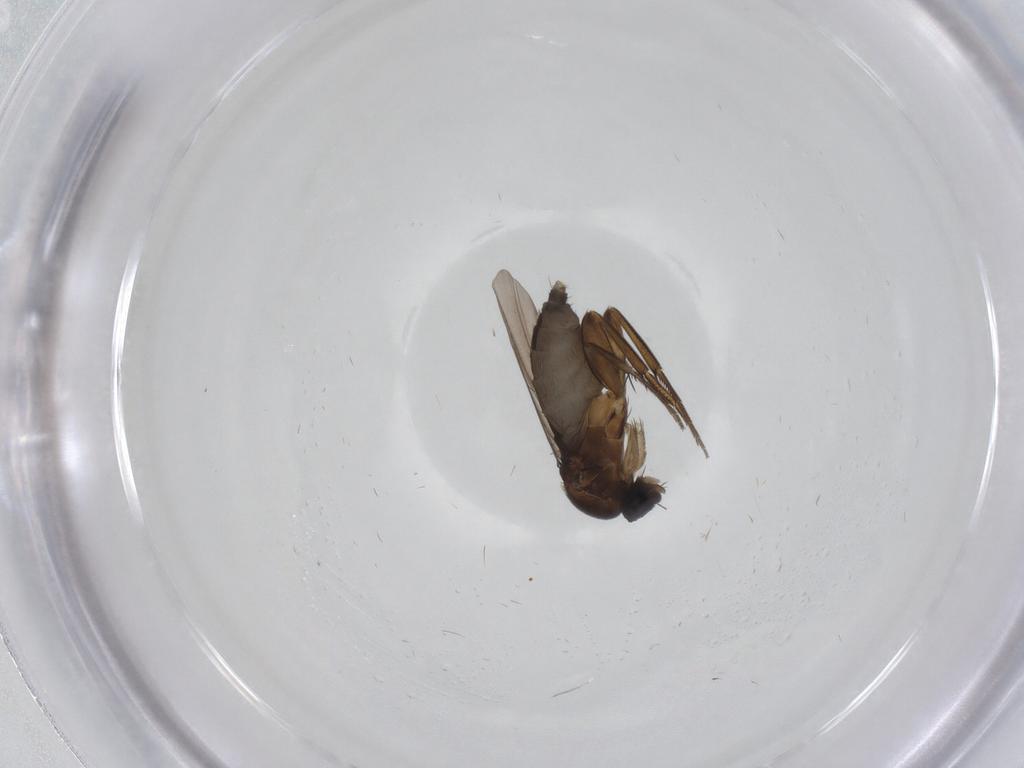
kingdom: Animalia
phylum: Arthropoda
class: Insecta
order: Diptera
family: Phoridae
